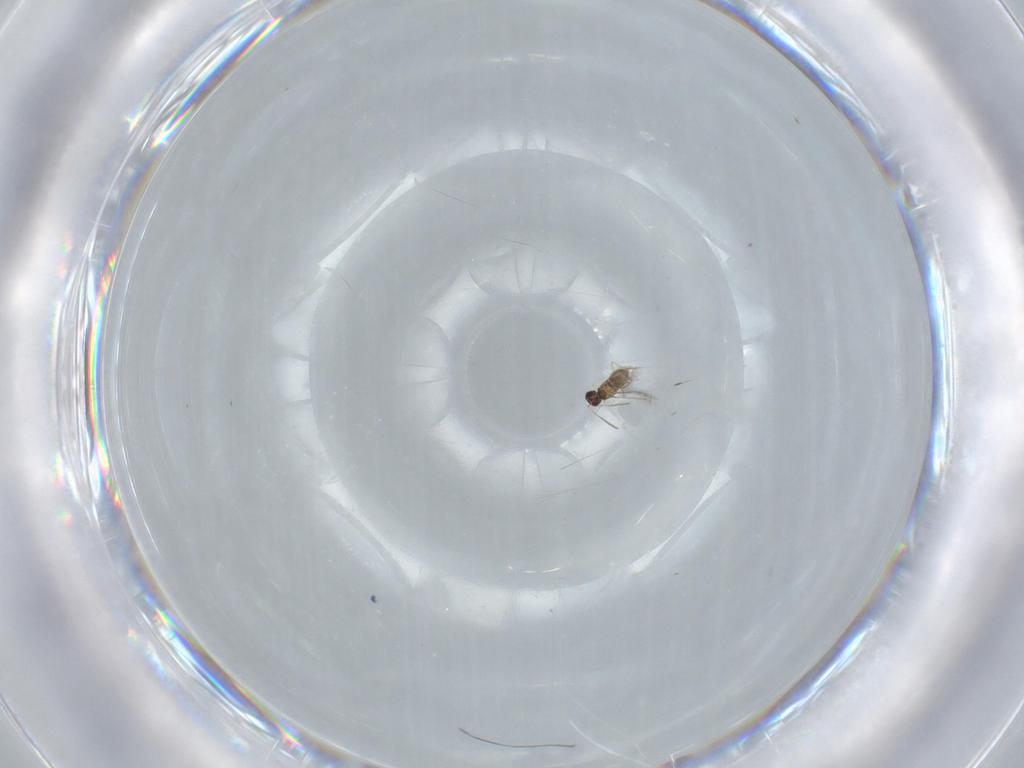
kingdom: Animalia
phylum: Arthropoda
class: Insecta
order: Hymenoptera
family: Mymaridae
